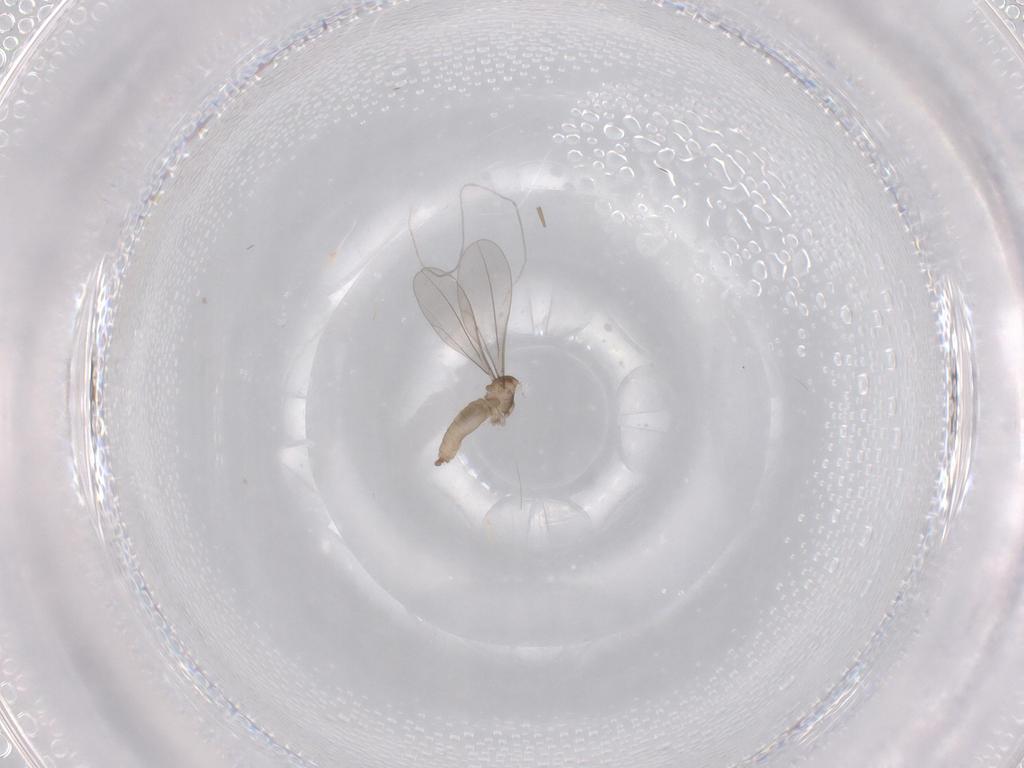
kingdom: Animalia
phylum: Arthropoda
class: Insecta
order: Diptera
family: Cecidomyiidae
